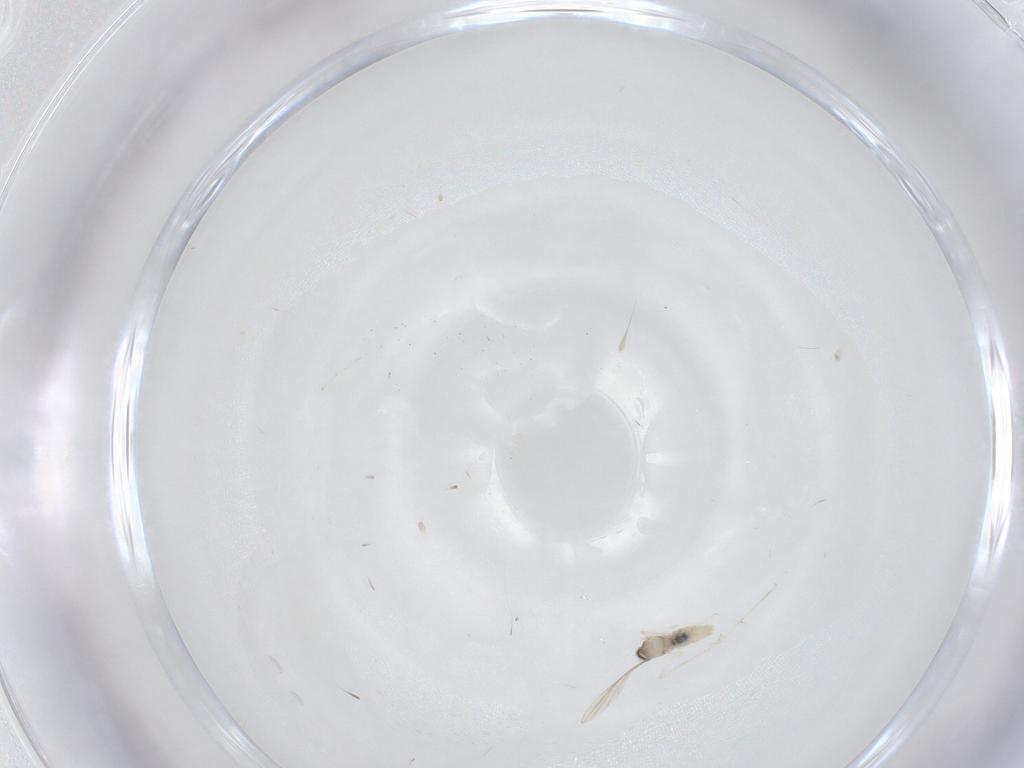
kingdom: Animalia
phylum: Arthropoda
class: Insecta
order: Diptera
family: Cecidomyiidae
